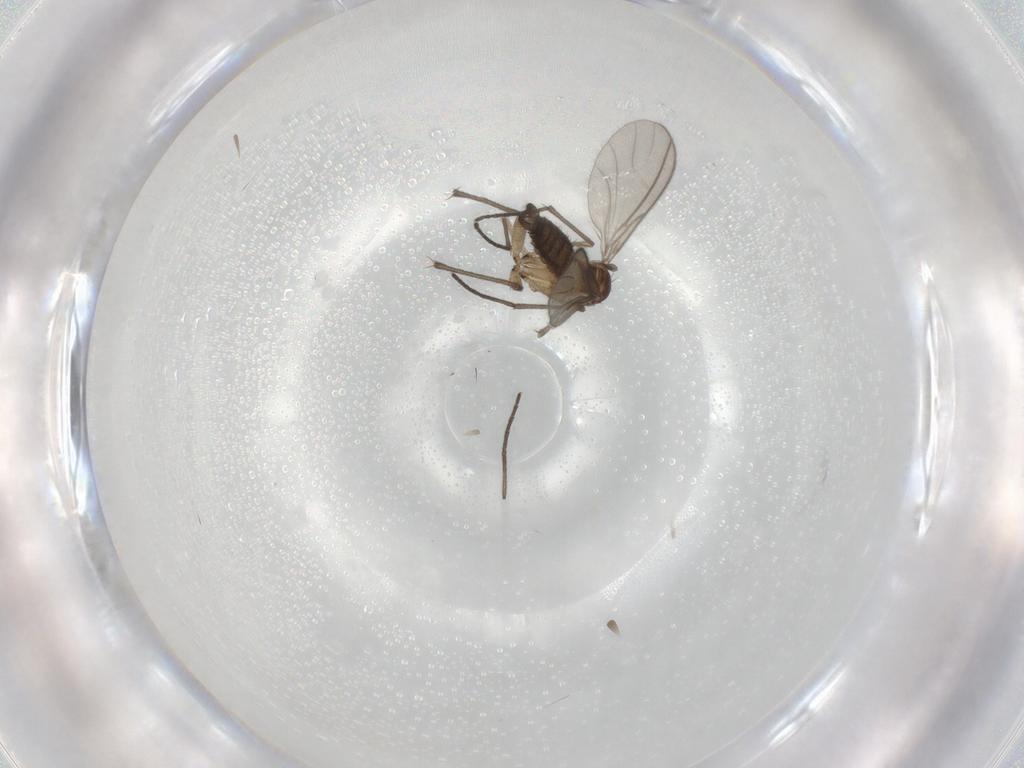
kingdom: Animalia
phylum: Arthropoda
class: Insecta
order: Diptera
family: Sciaridae
